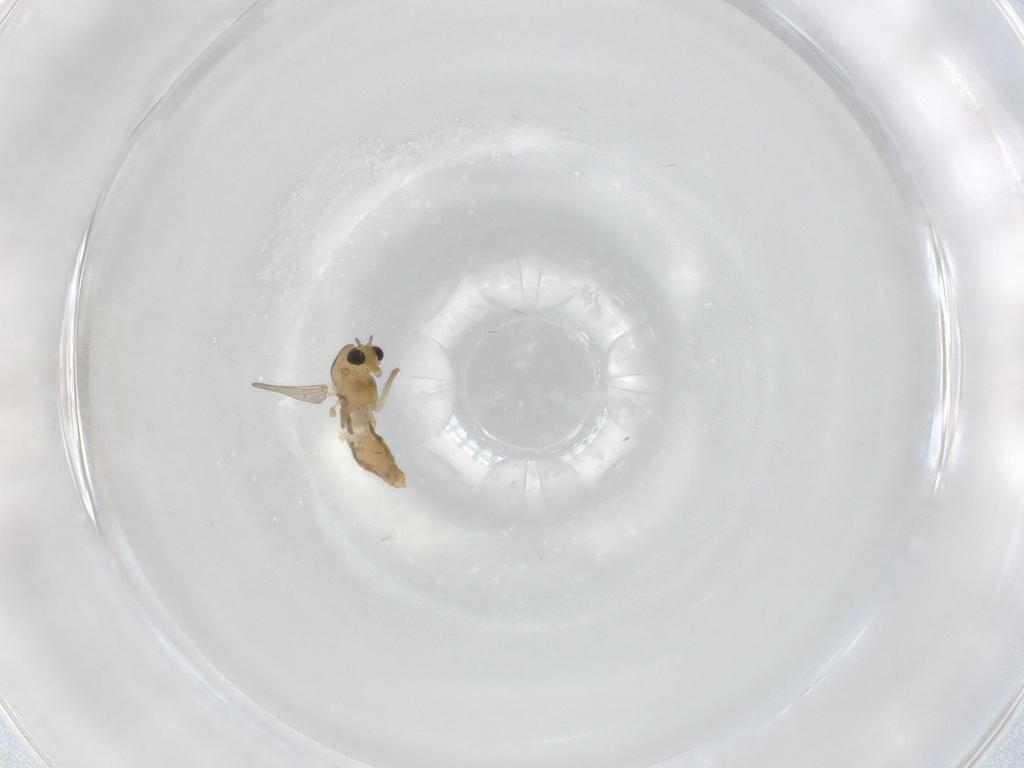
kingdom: Animalia
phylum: Arthropoda
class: Insecta
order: Diptera
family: Chironomidae
